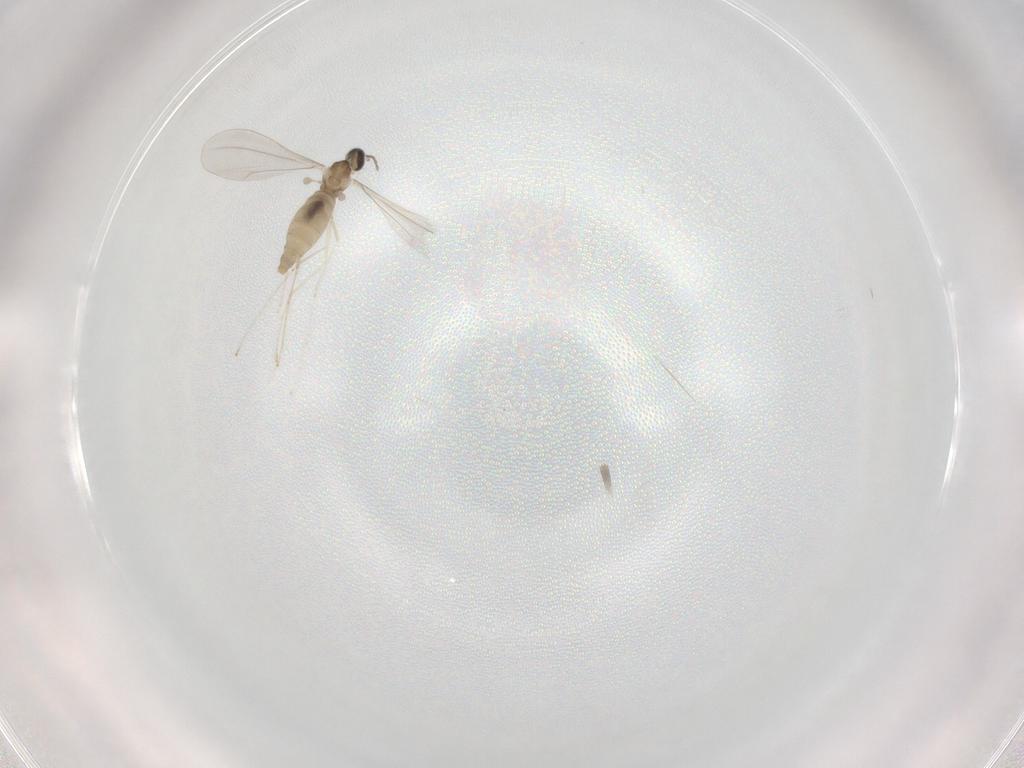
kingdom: Animalia
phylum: Arthropoda
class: Insecta
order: Diptera
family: Cecidomyiidae
